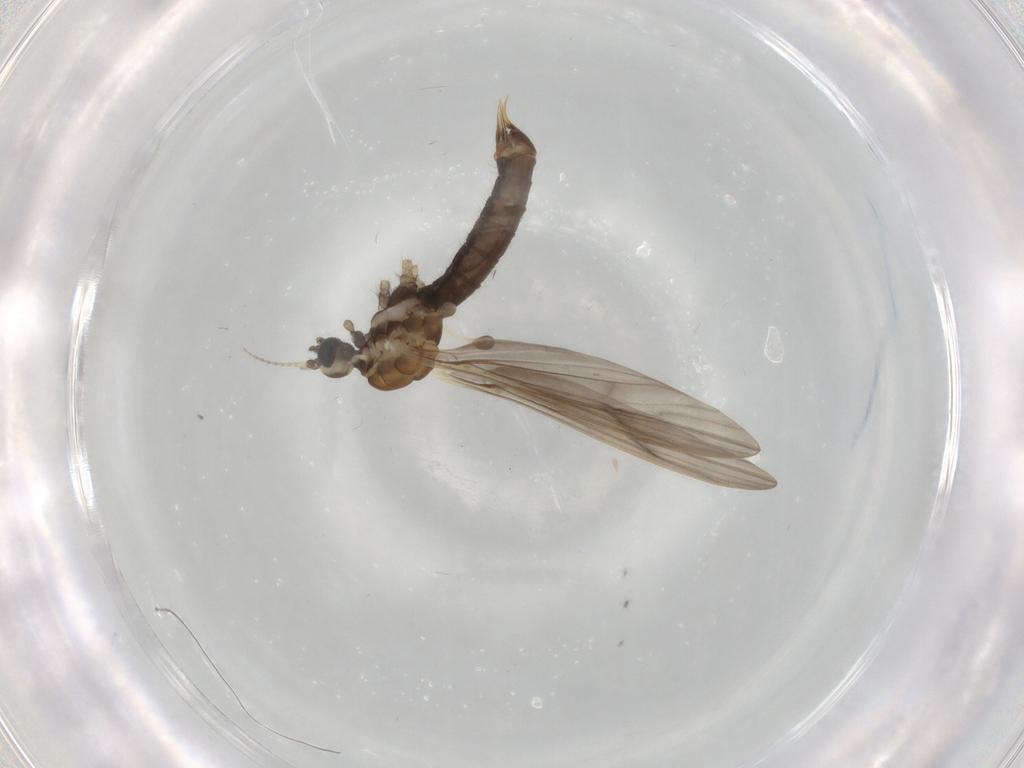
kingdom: Animalia
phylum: Arthropoda
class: Insecta
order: Diptera
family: Limoniidae
